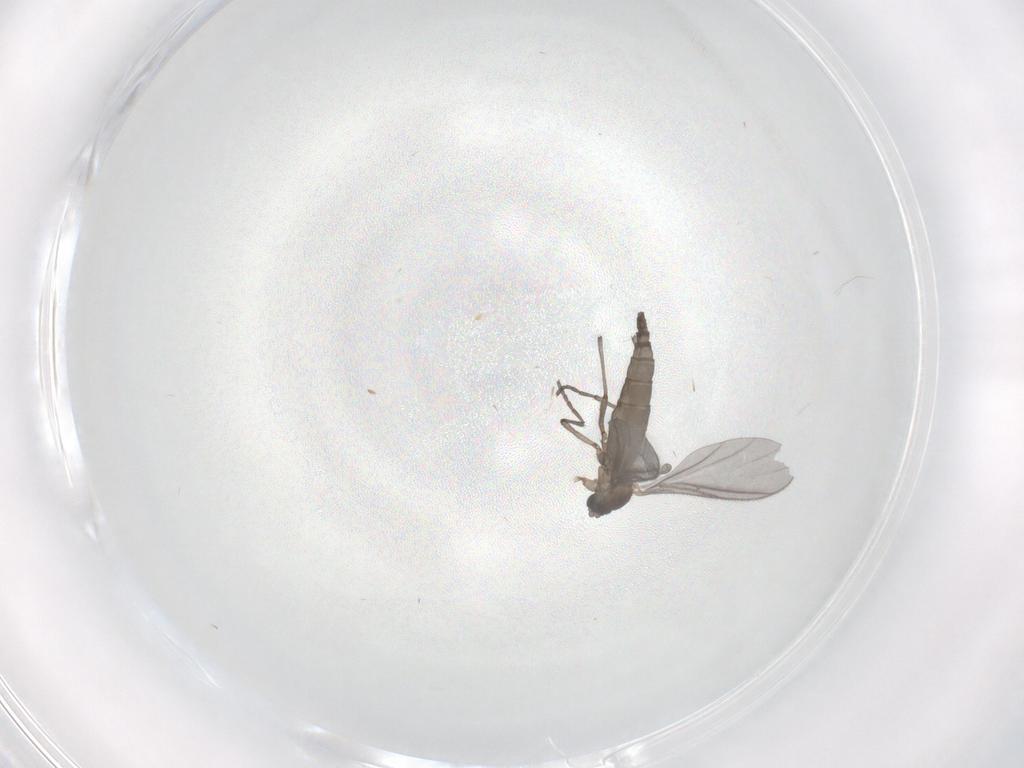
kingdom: Animalia
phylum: Arthropoda
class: Insecta
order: Diptera
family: Sciaridae
